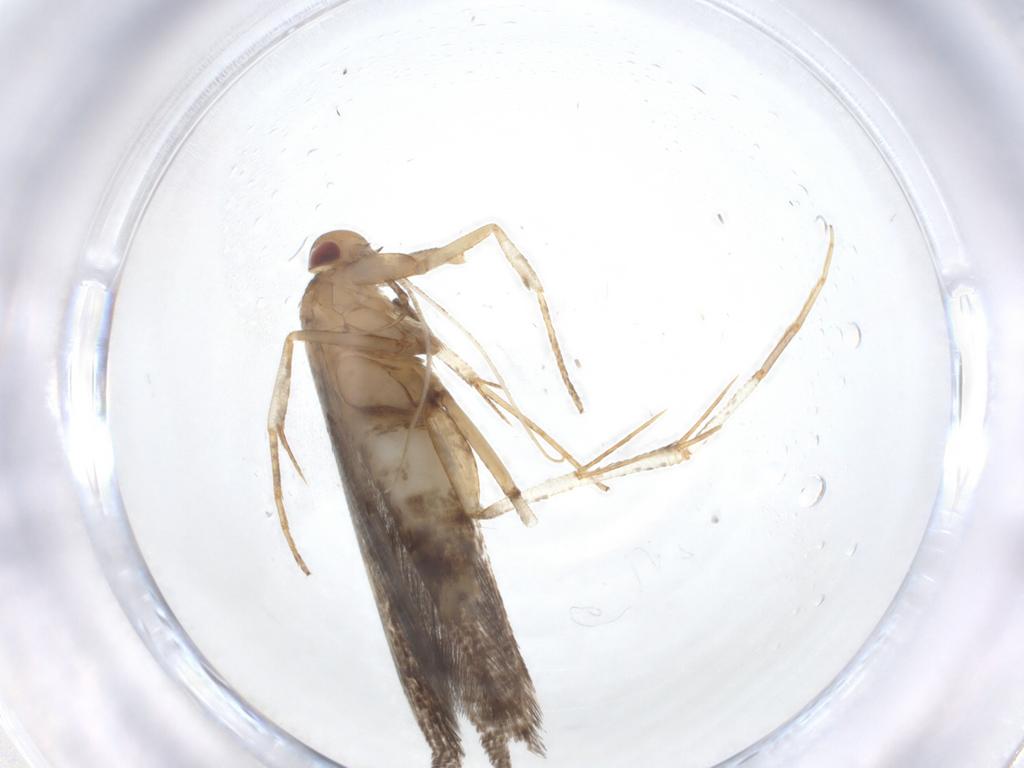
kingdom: Animalia
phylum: Arthropoda
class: Insecta
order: Lepidoptera
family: Cosmopterigidae
